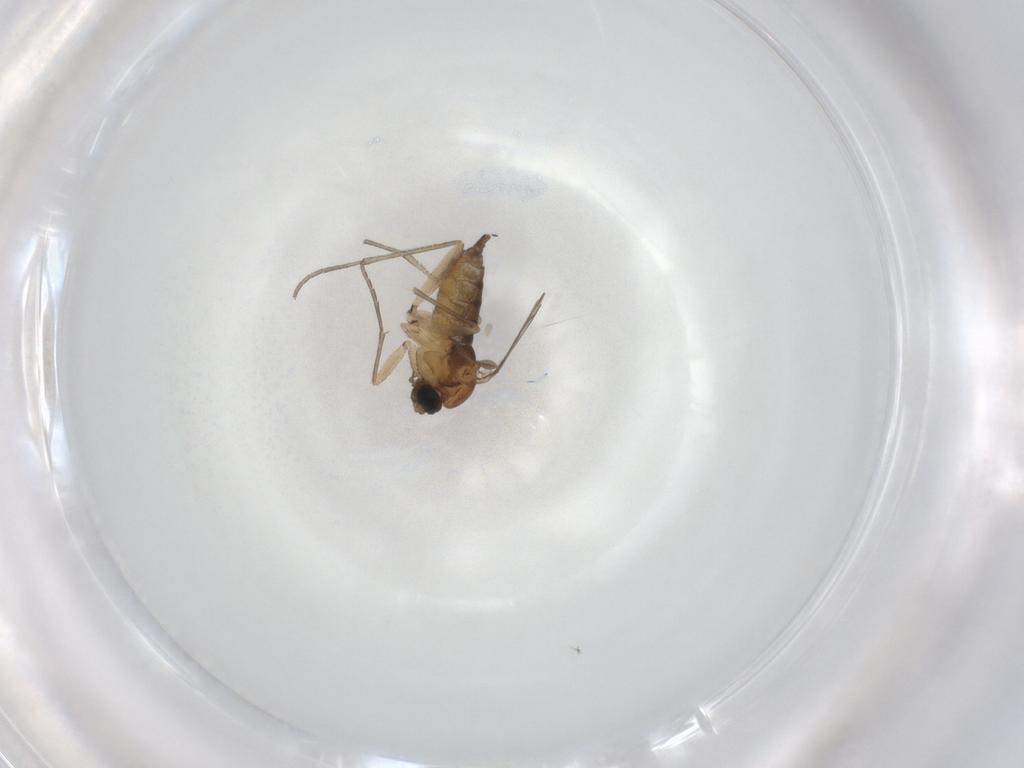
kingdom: Animalia
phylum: Arthropoda
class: Insecta
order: Diptera
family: Sciaridae
